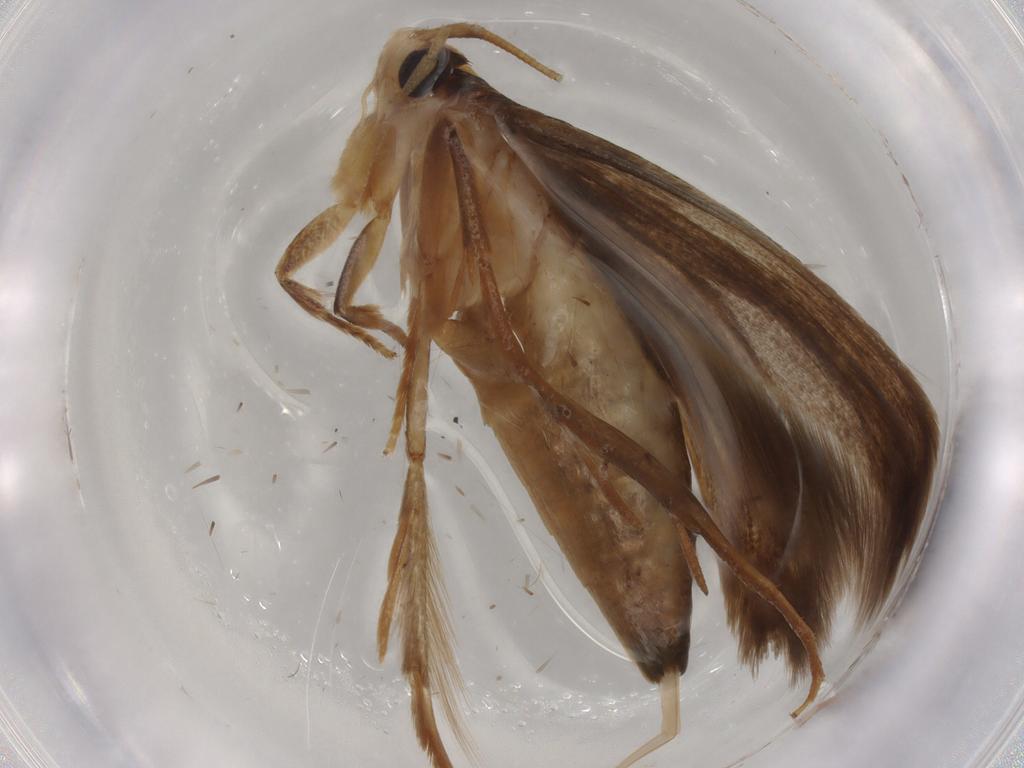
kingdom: Animalia
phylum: Arthropoda
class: Insecta
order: Lepidoptera
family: Tineidae
